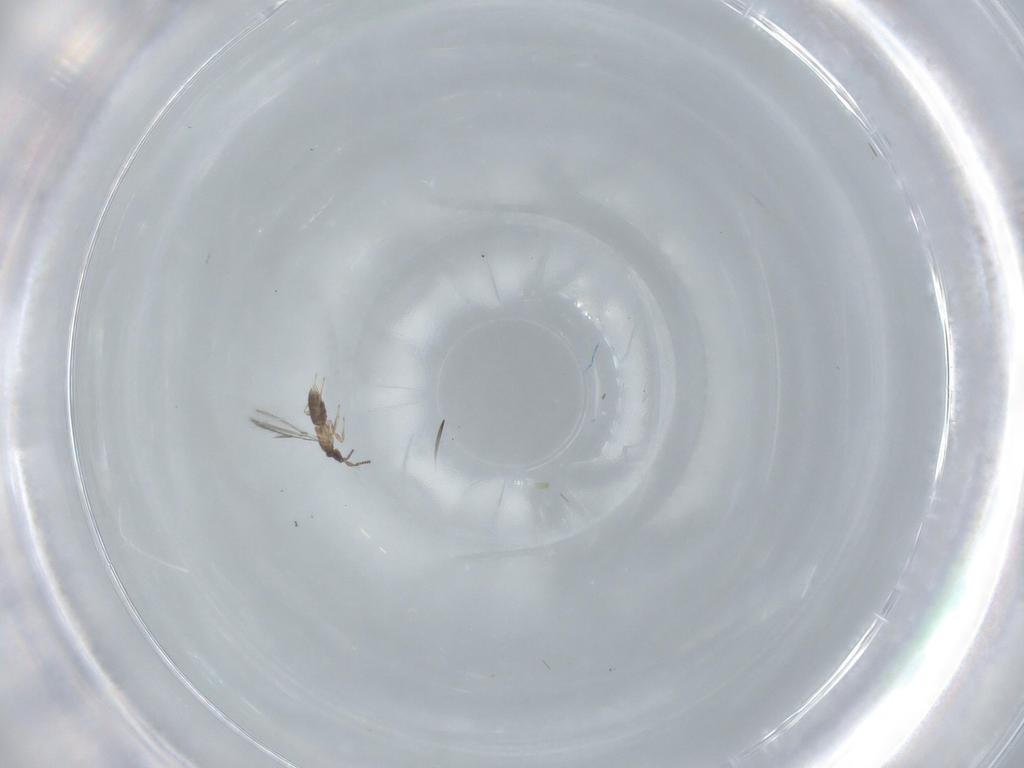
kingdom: Animalia
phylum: Arthropoda
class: Insecta
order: Hymenoptera
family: Mymaridae
